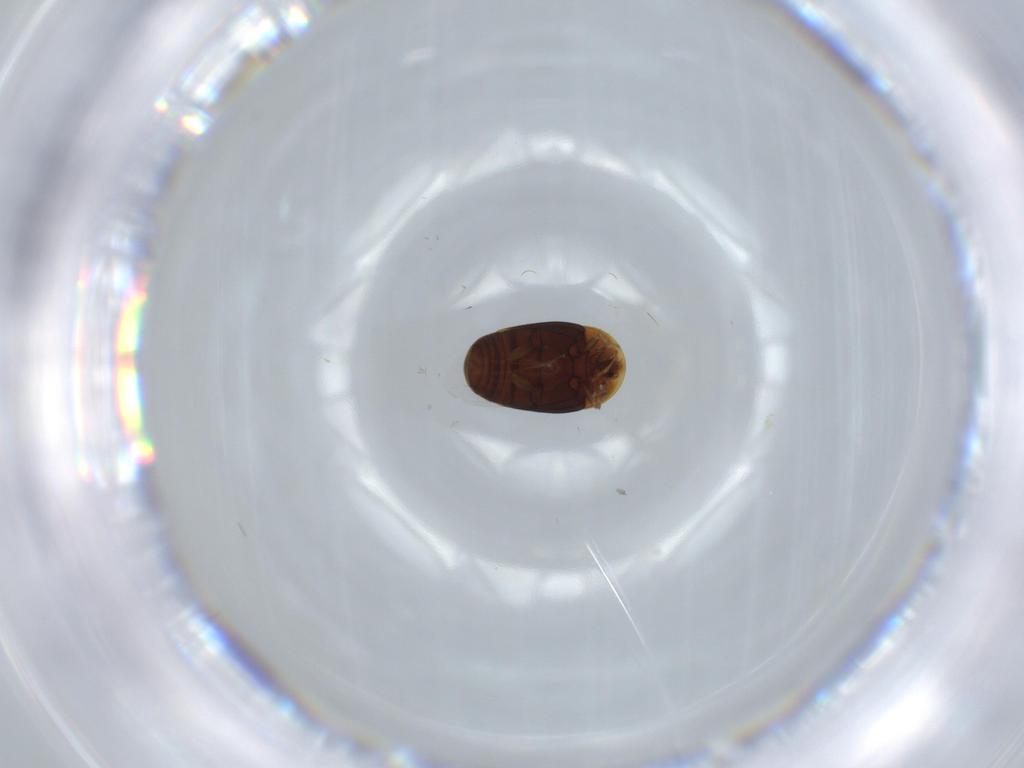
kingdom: Animalia
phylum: Arthropoda
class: Insecta
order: Coleoptera
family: Corylophidae
